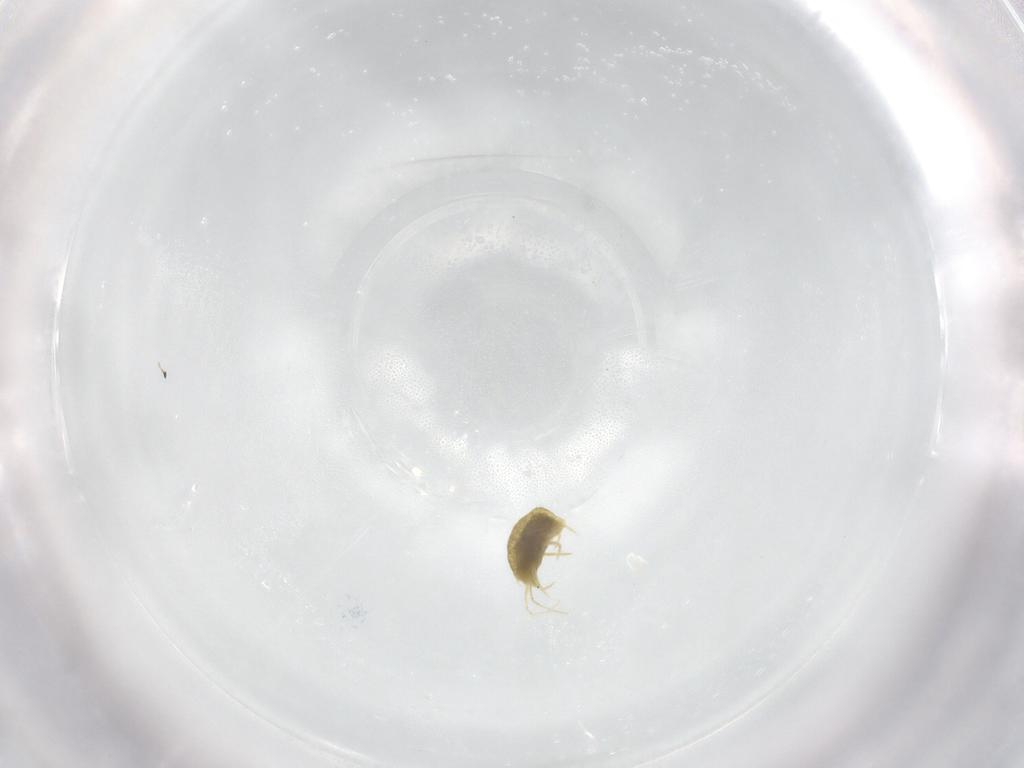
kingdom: Animalia
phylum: Arthropoda
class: Arachnida
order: Trombidiformes
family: Tetranychidae
